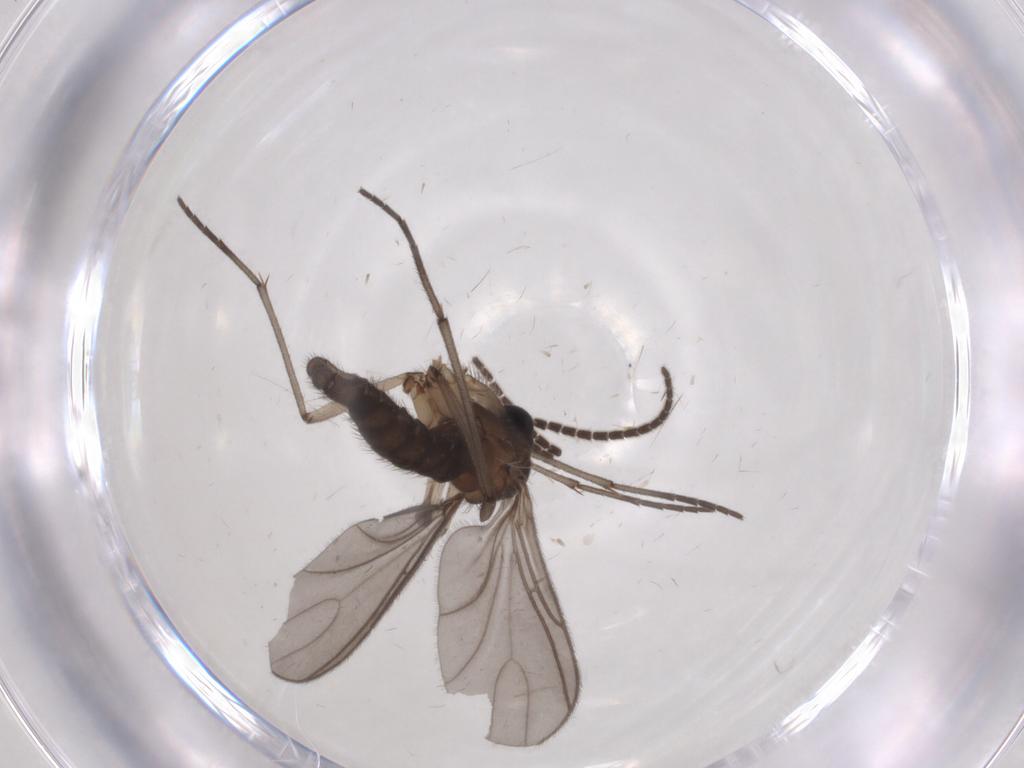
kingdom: Animalia
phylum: Arthropoda
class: Insecta
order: Diptera
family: Sciaridae
